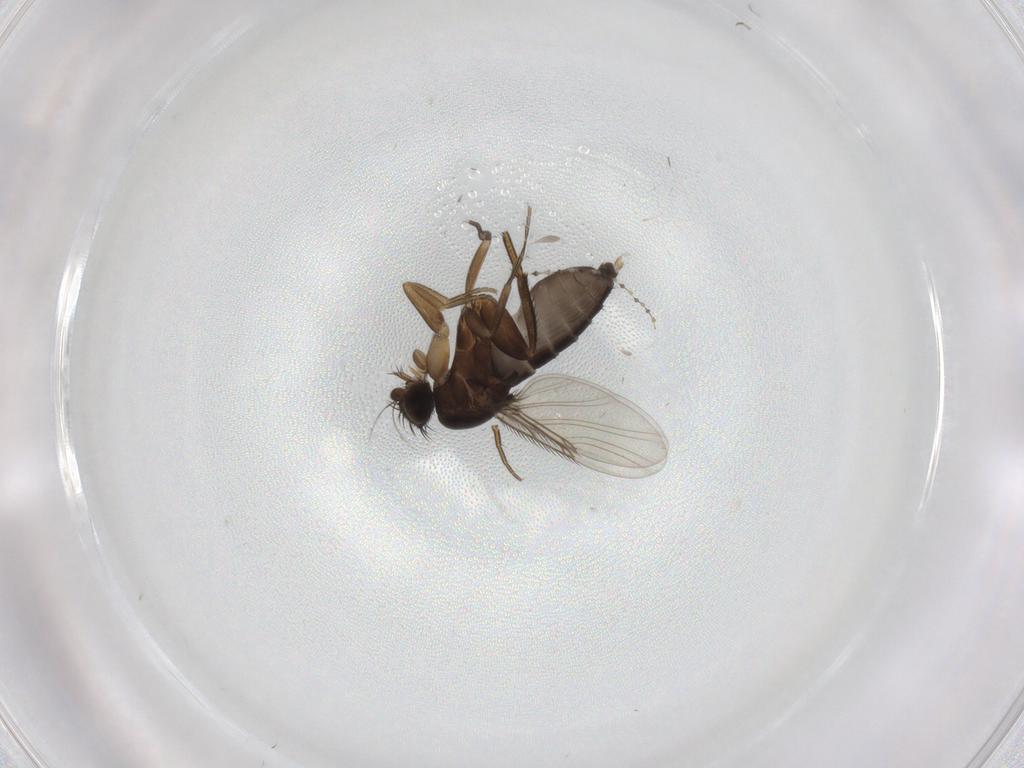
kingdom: Animalia
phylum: Arthropoda
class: Insecta
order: Diptera
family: Phoridae
